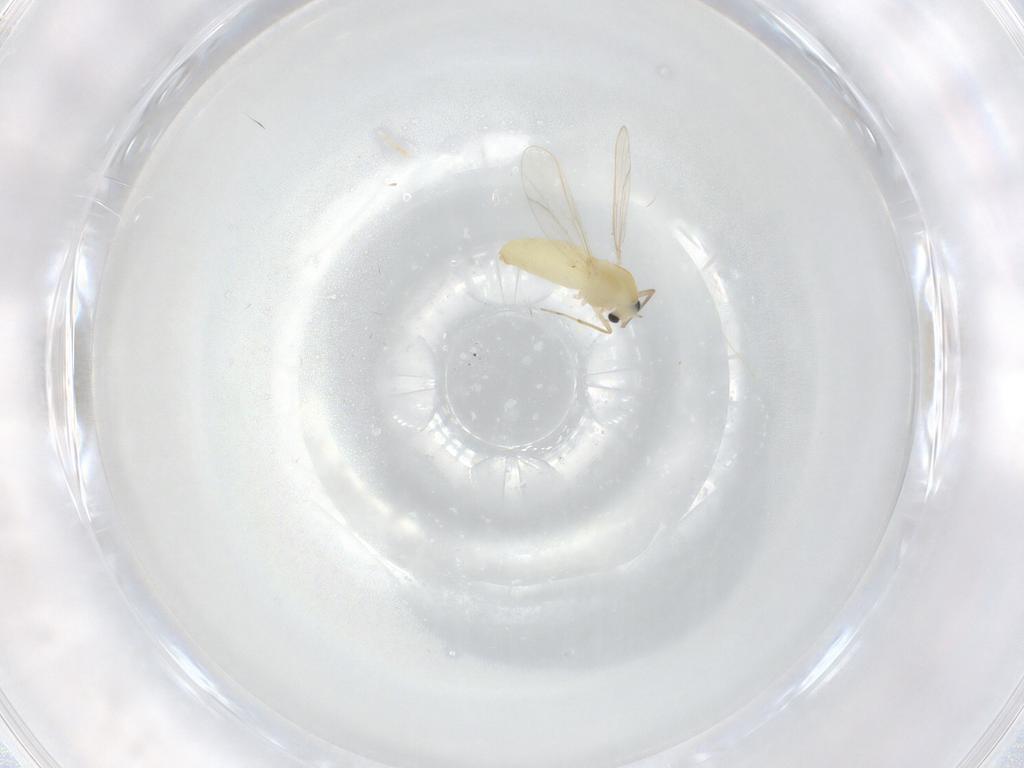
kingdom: Animalia
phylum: Arthropoda
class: Insecta
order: Diptera
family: Chironomidae
